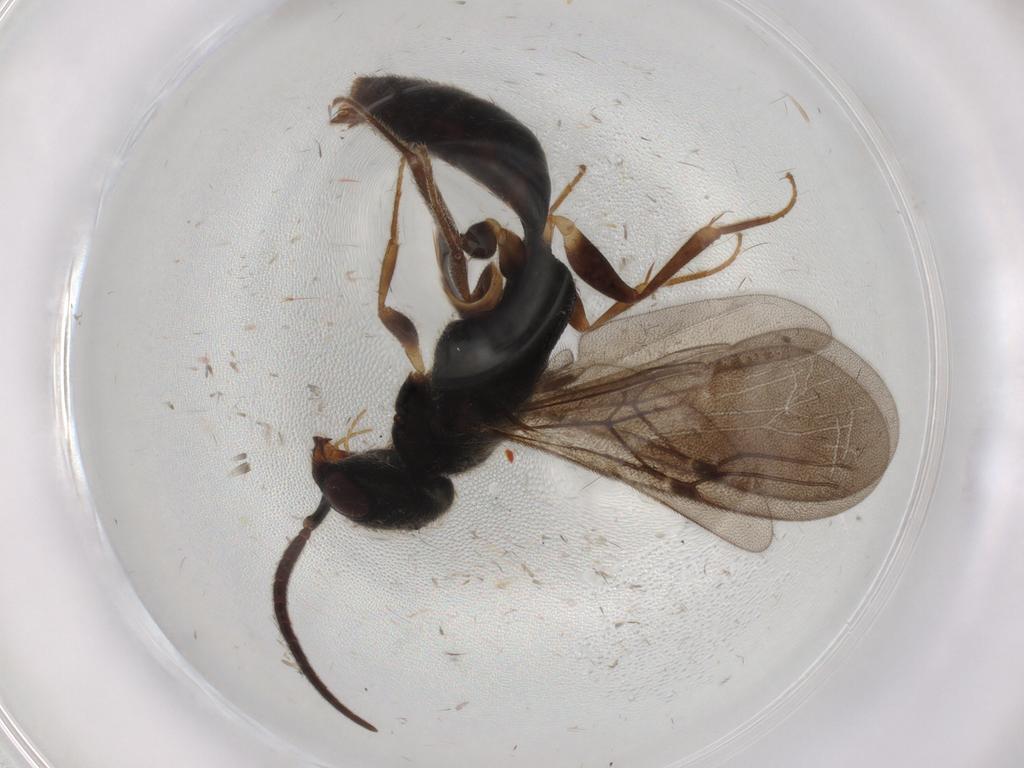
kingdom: Animalia
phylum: Arthropoda
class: Insecta
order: Hymenoptera
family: Bethylidae
